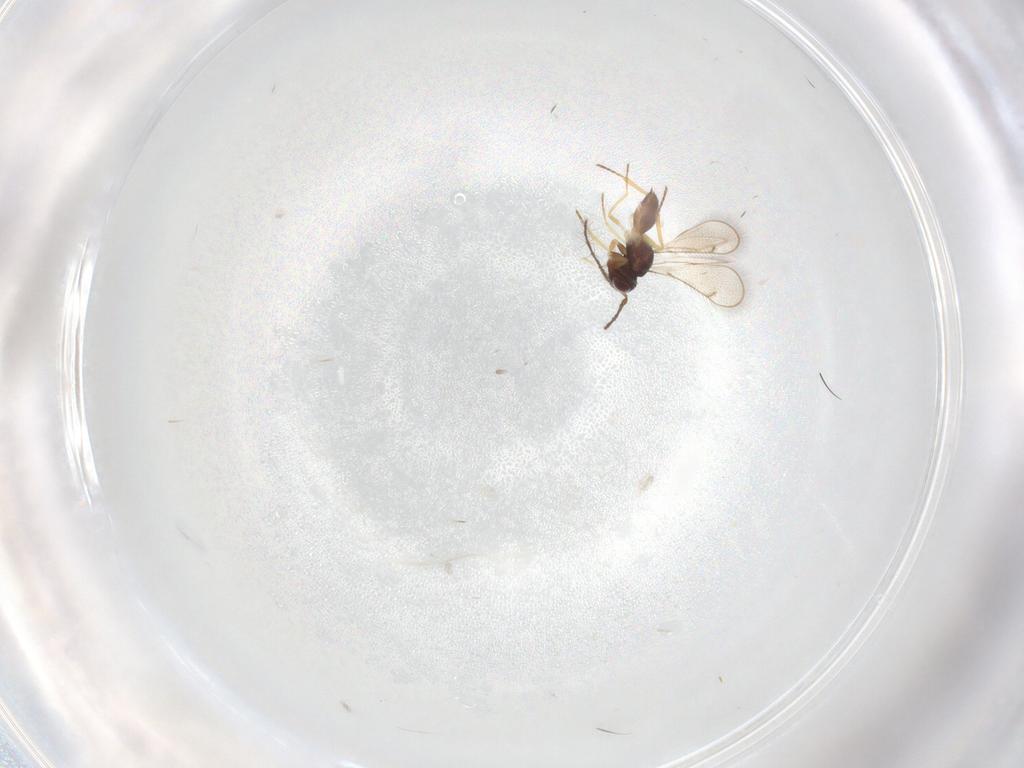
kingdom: Animalia
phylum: Arthropoda
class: Insecta
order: Hymenoptera
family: Eulophidae
